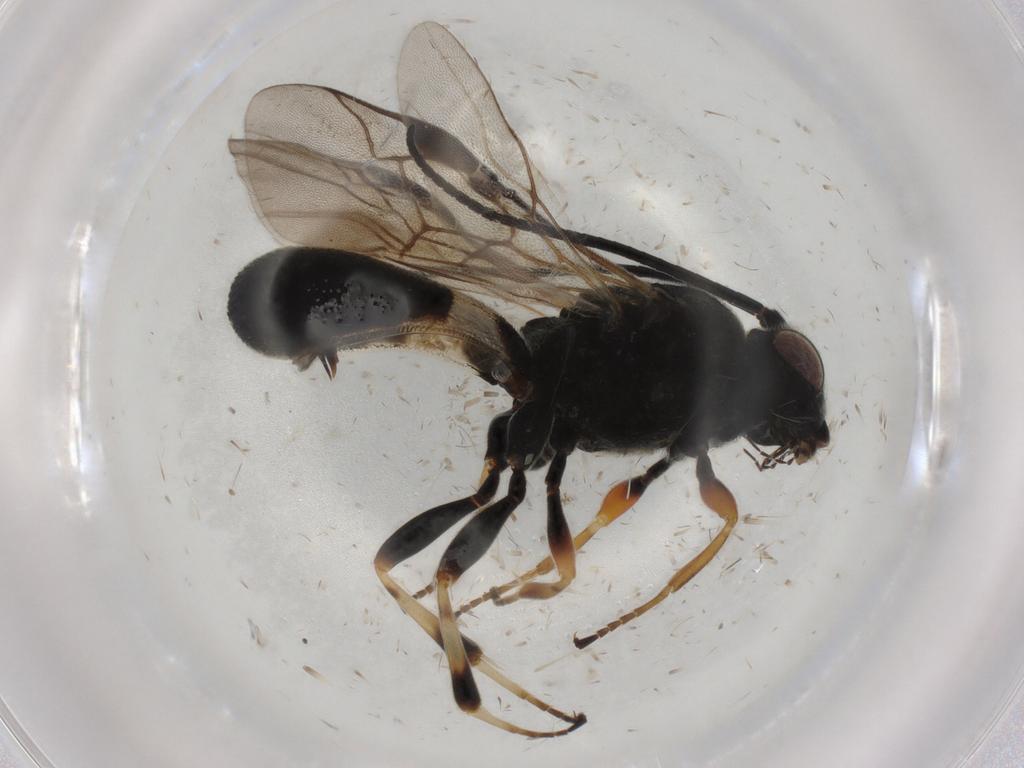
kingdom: Animalia
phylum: Arthropoda
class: Insecta
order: Hymenoptera
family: Braconidae
